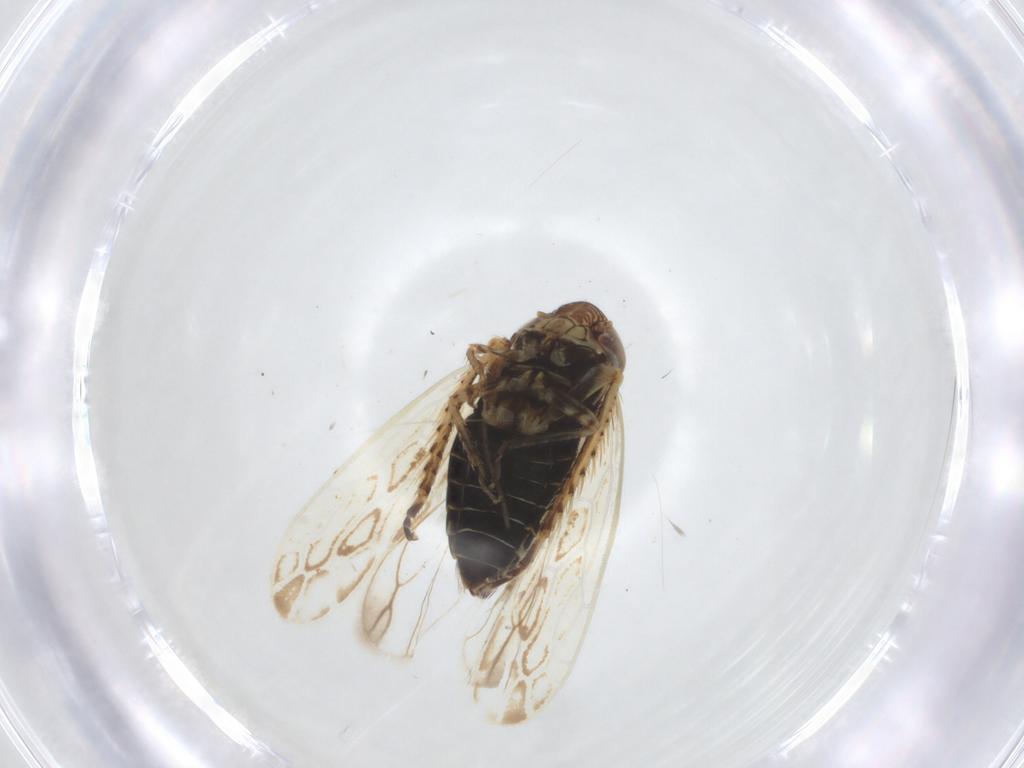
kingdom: Animalia
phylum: Arthropoda
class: Insecta
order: Hemiptera
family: Cicadellidae
